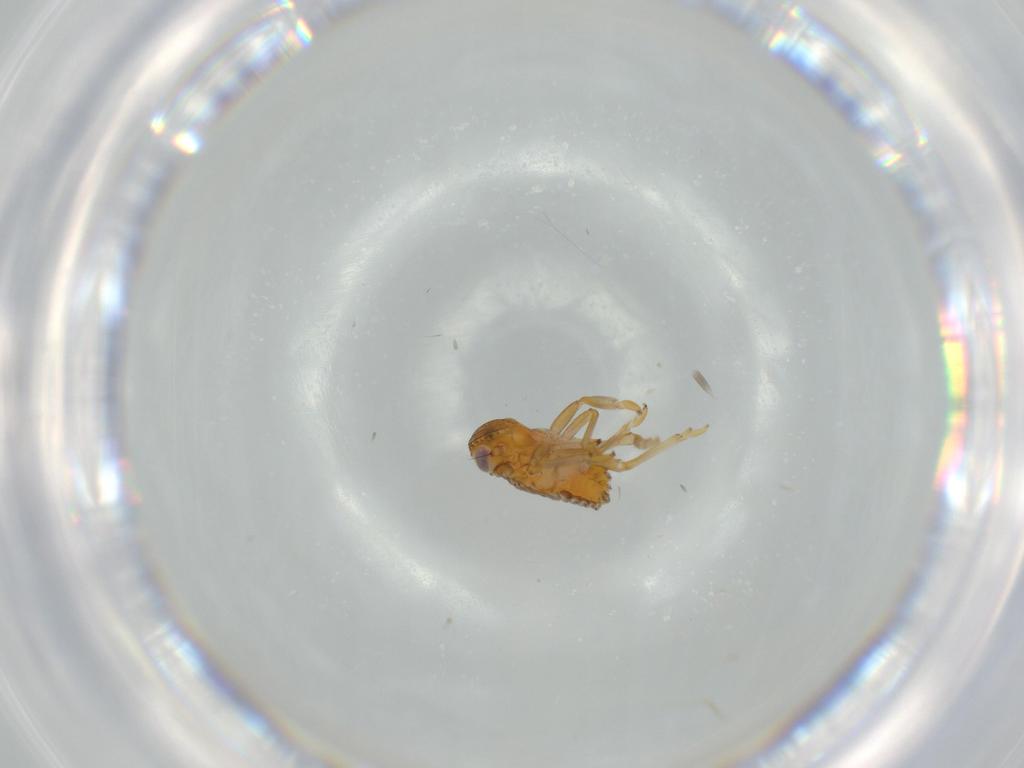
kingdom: Animalia
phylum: Arthropoda
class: Insecta
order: Hemiptera
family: Issidae
